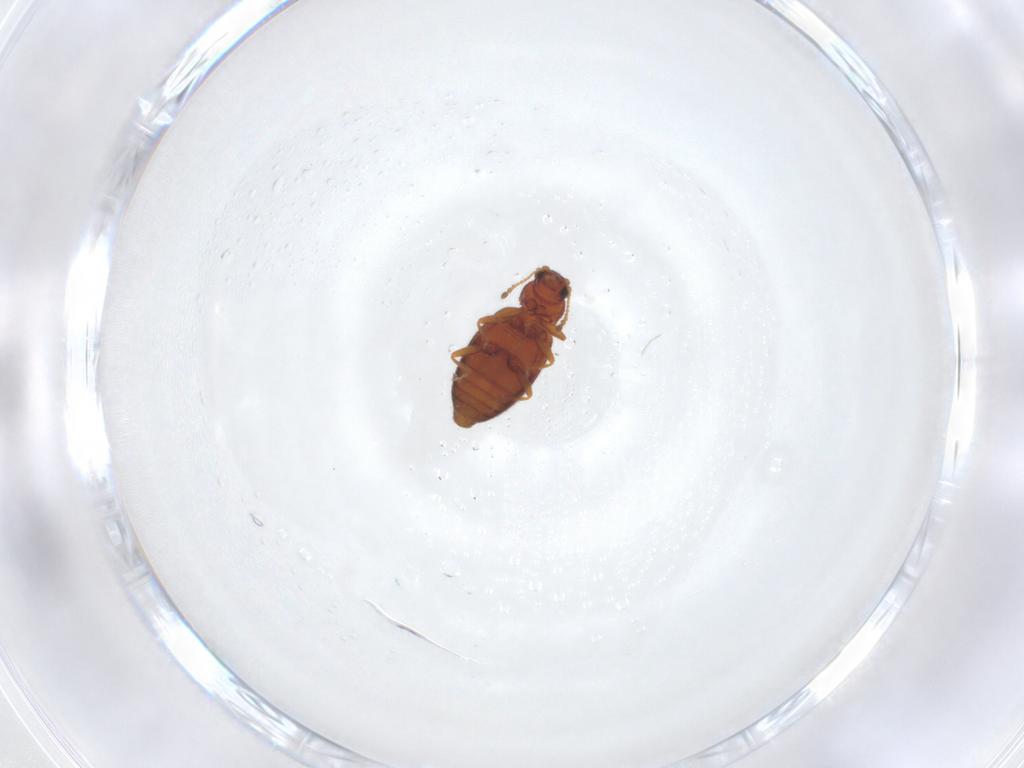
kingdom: Animalia
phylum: Arthropoda
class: Insecta
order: Coleoptera
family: Latridiidae
